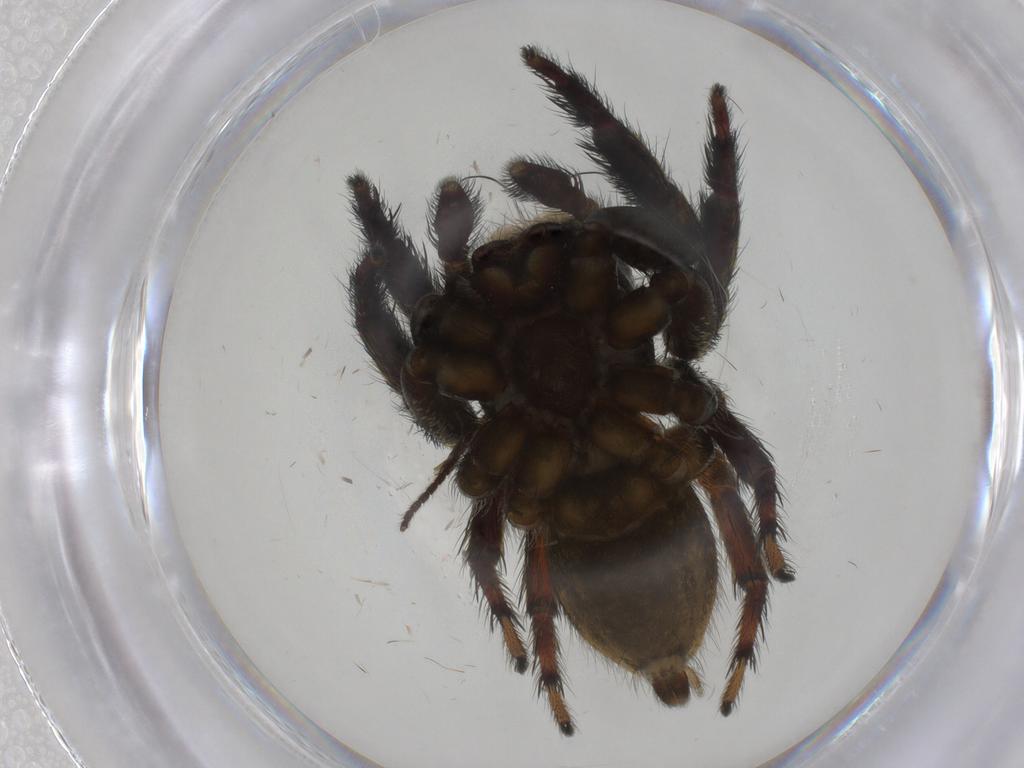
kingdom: Animalia
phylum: Arthropoda
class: Arachnida
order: Araneae
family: Salticidae
